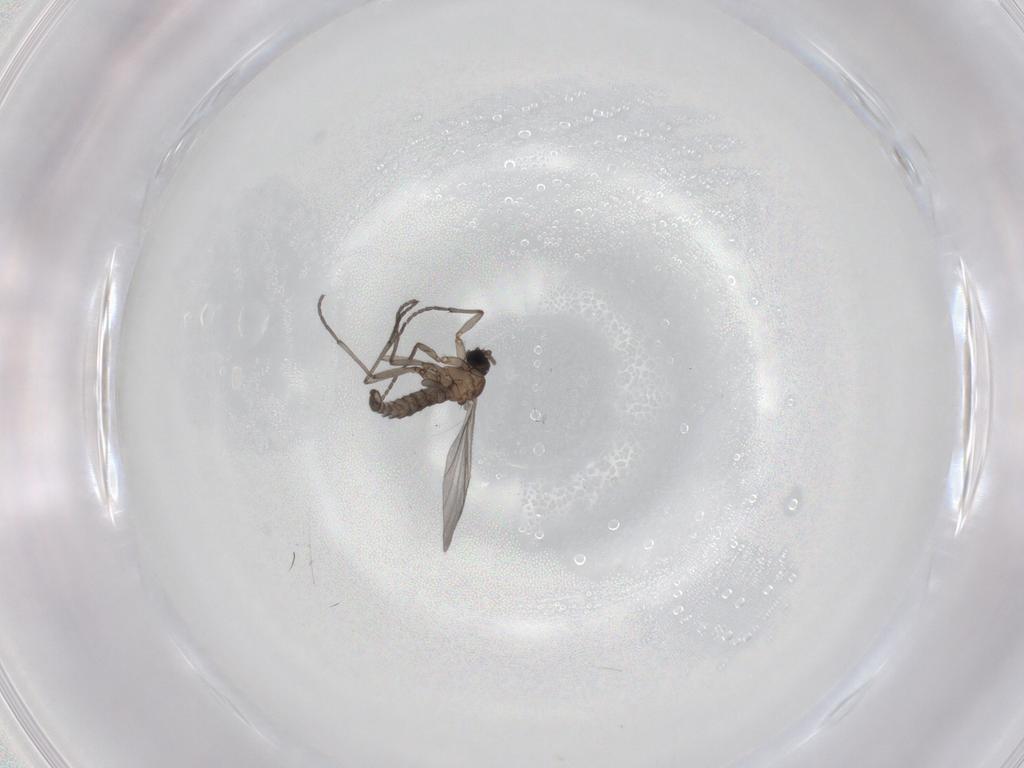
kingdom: Animalia
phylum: Arthropoda
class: Insecta
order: Diptera
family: Sciaridae
